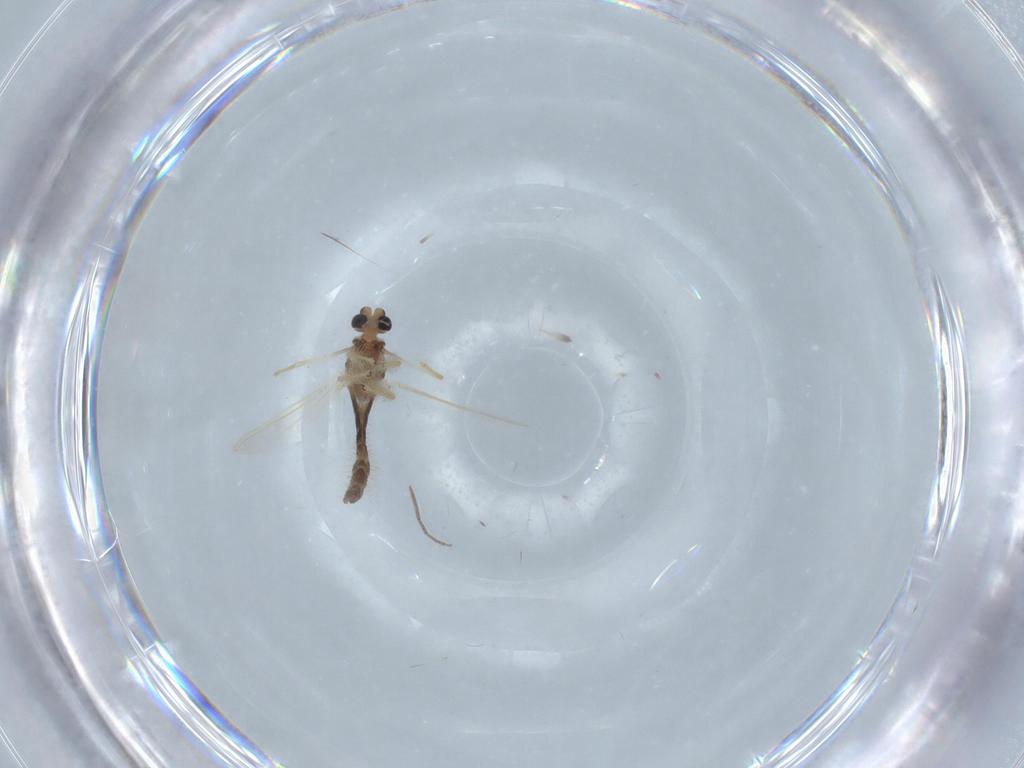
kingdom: Animalia
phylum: Arthropoda
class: Insecta
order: Diptera
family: Chironomidae
